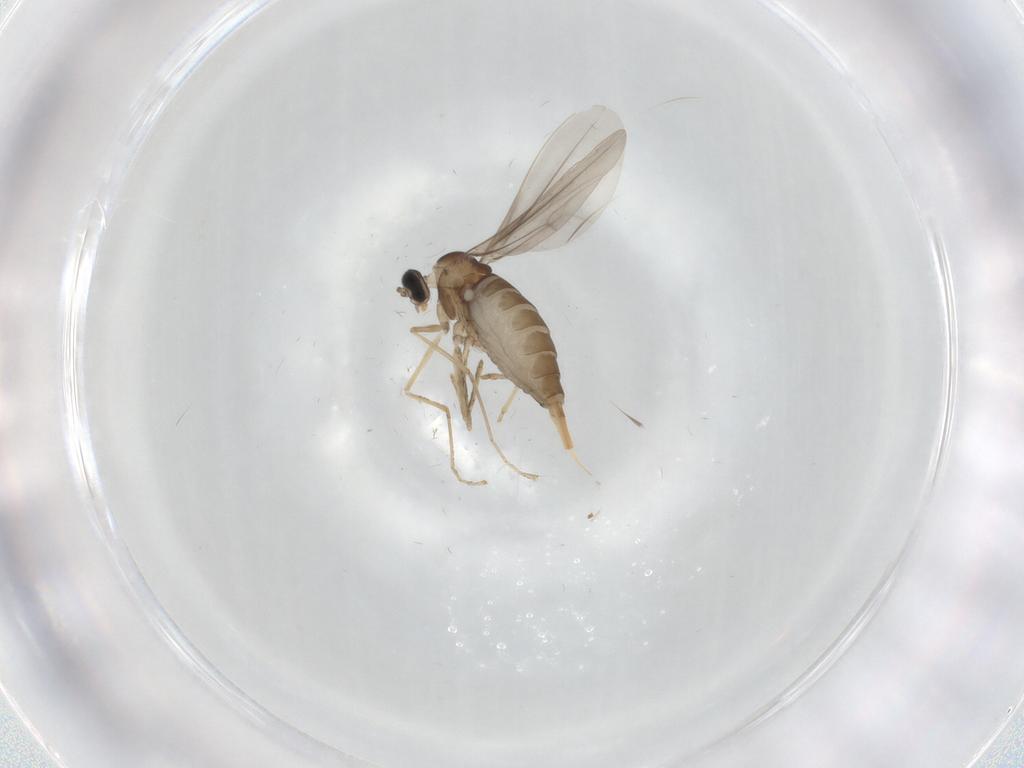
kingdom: Animalia
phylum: Arthropoda
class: Insecta
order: Diptera
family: Cecidomyiidae
